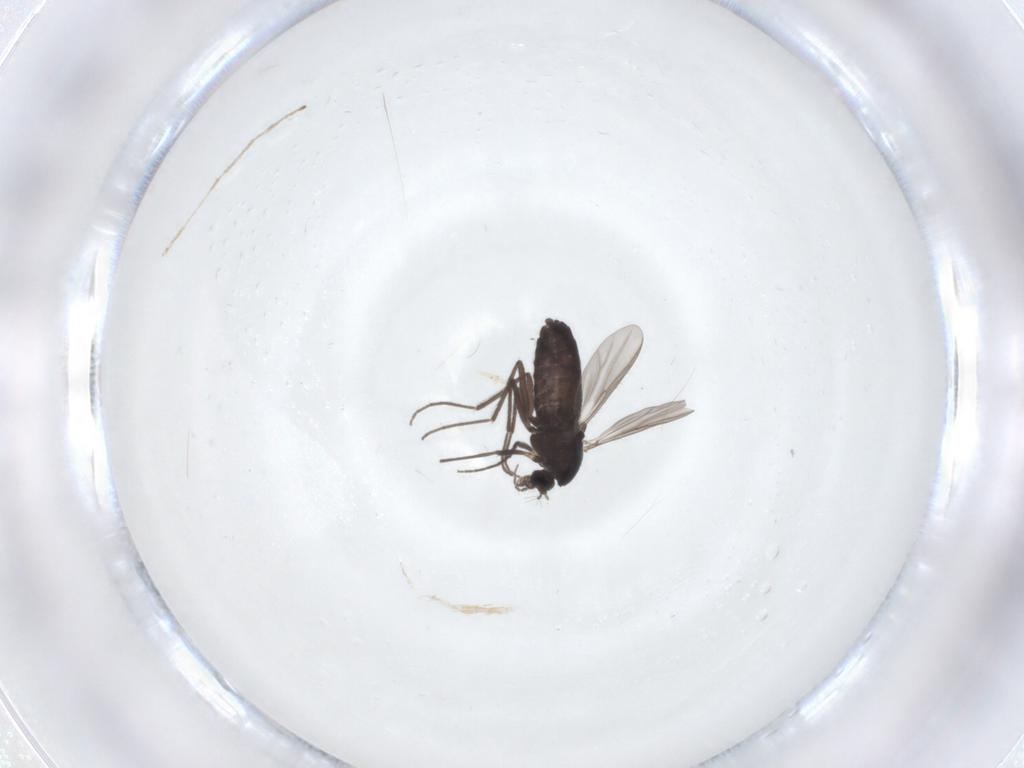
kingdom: Animalia
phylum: Arthropoda
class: Insecta
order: Diptera
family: Chironomidae
